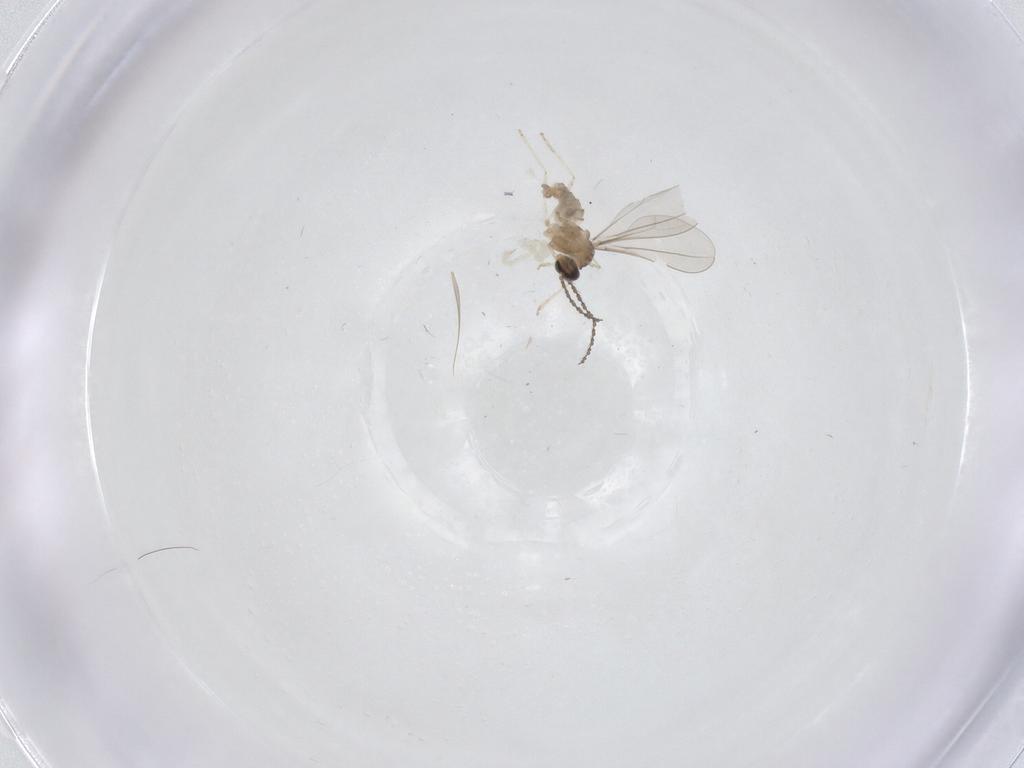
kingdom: Animalia
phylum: Arthropoda
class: Insecta
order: Diptera
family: Cecidomyiidae
